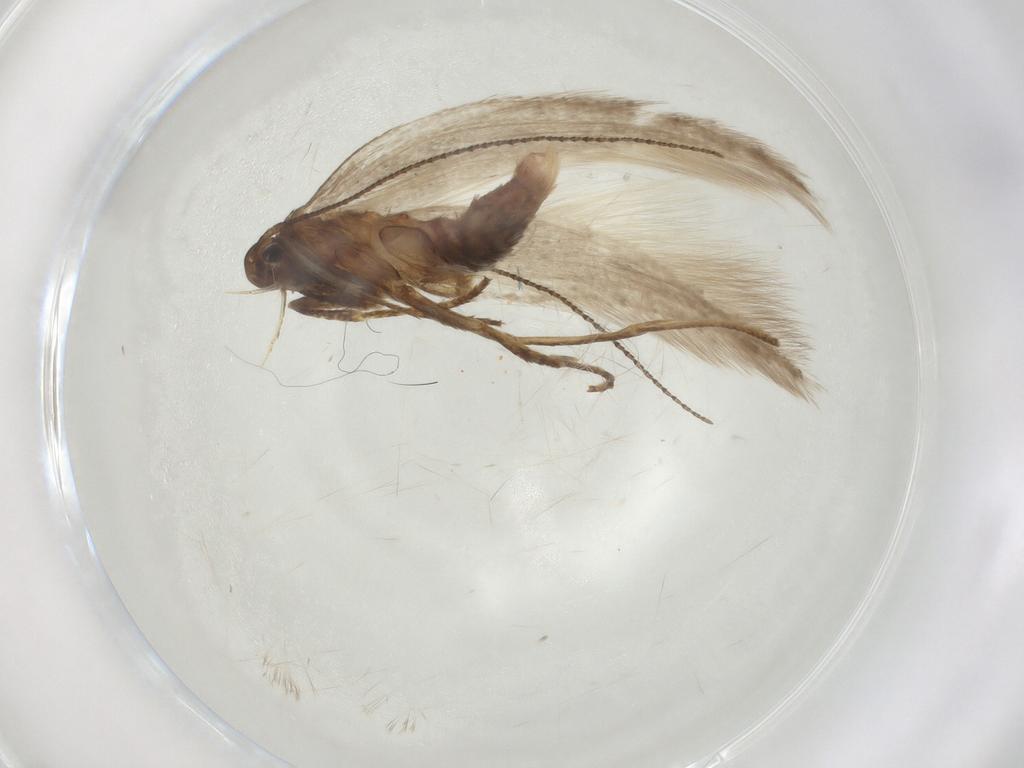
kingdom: Animalia
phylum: Arthropoda
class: Insecta
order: Lepidoptera
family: Erebidae
